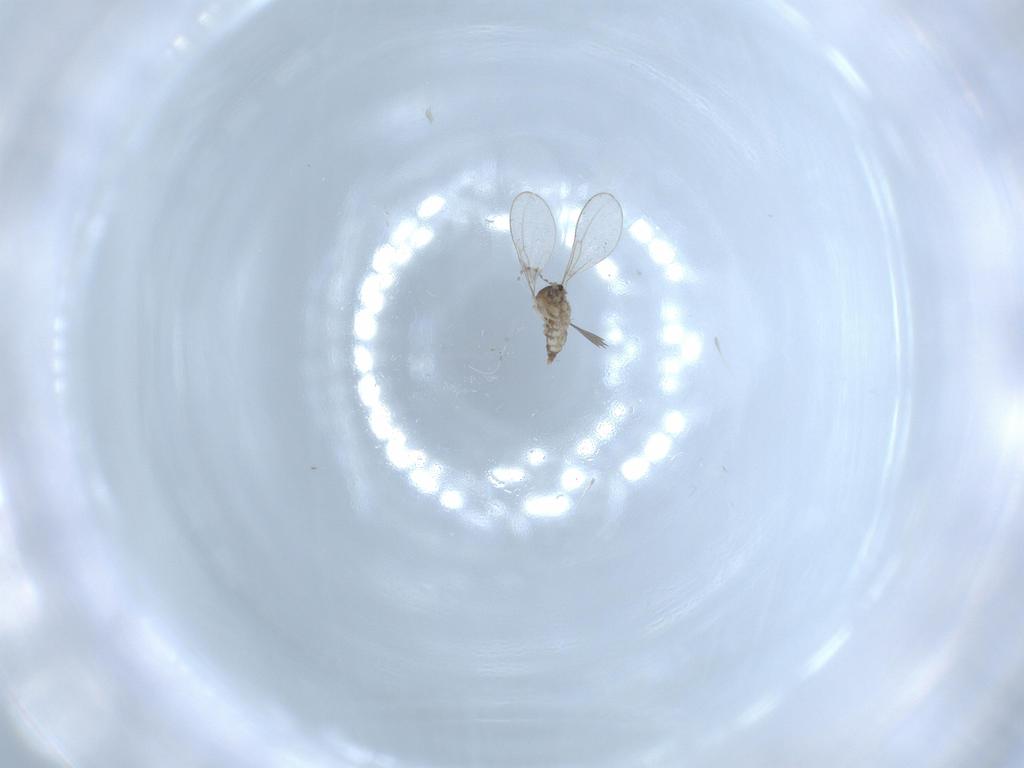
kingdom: Animalia
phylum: Arthropoda
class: Insecta
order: Diptera
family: Cecidomyiidae
